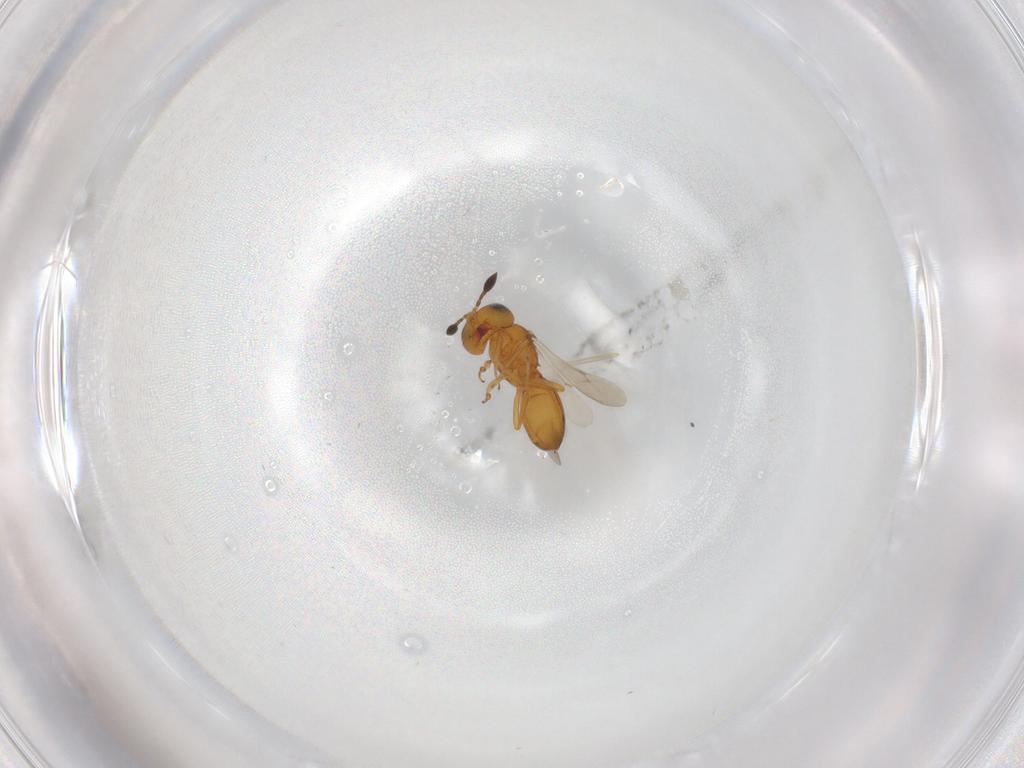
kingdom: Animalia
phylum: Arthropoda
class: Insecta
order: Hymenoptera
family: Scelionidae
